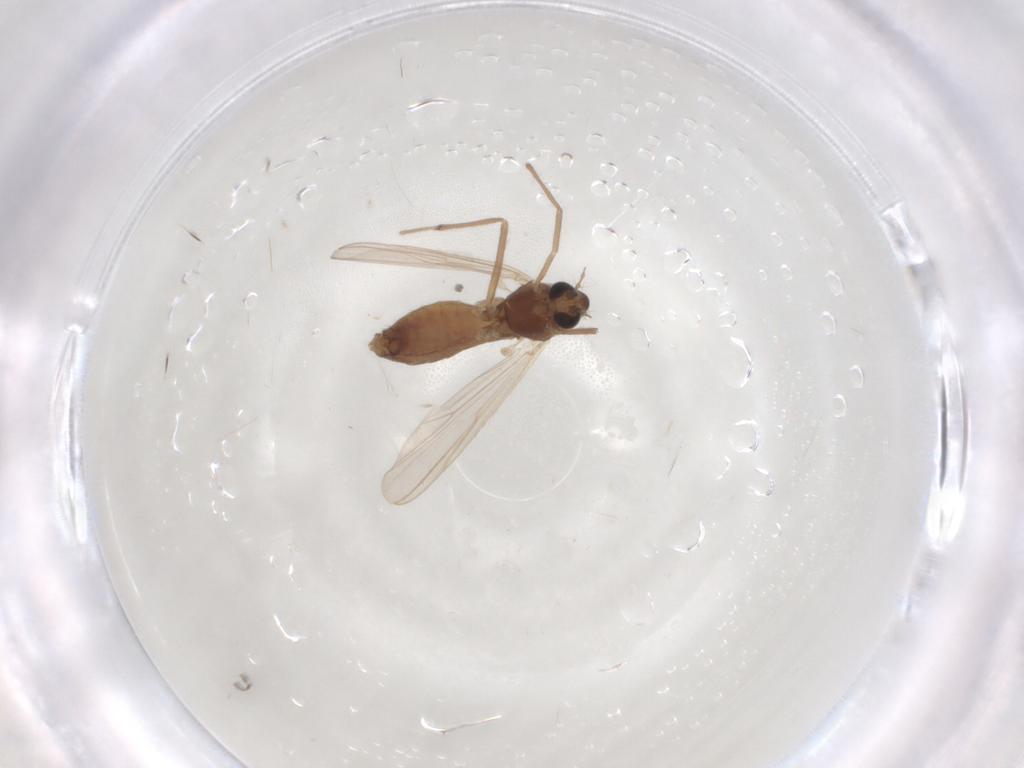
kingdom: Animalia
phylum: Arthropoda
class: Insecta
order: Diptera
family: Chironomidae
